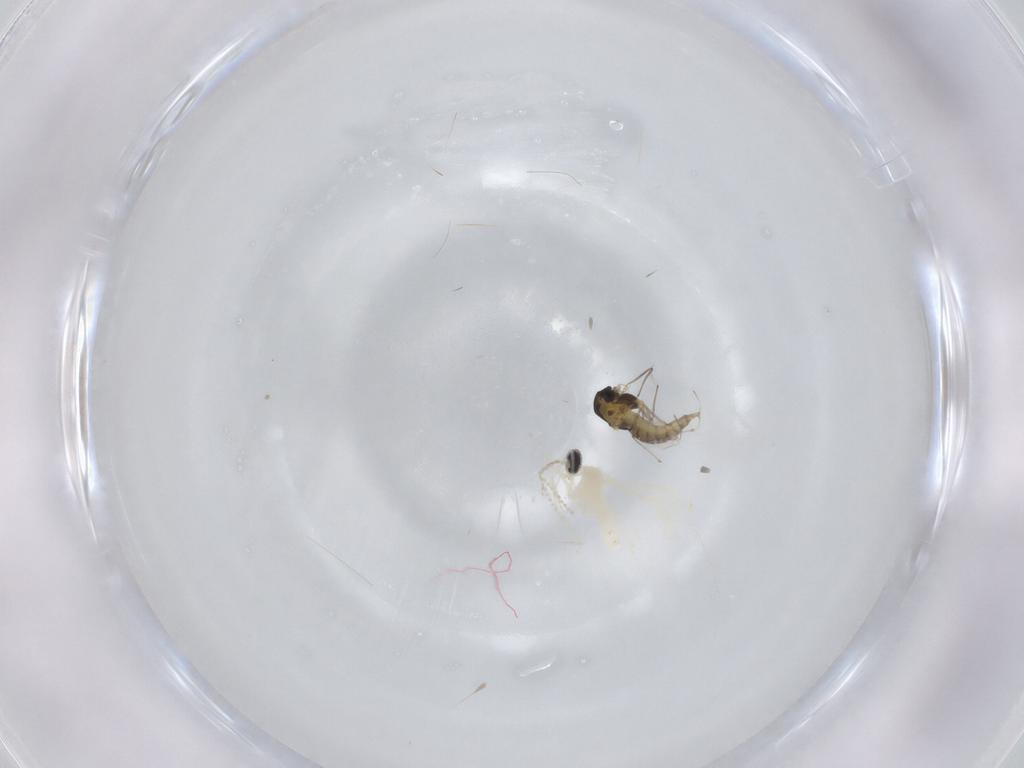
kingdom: Animalia
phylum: Arthropoda
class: Insecta
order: Diptera
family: Cecidomyiidae
